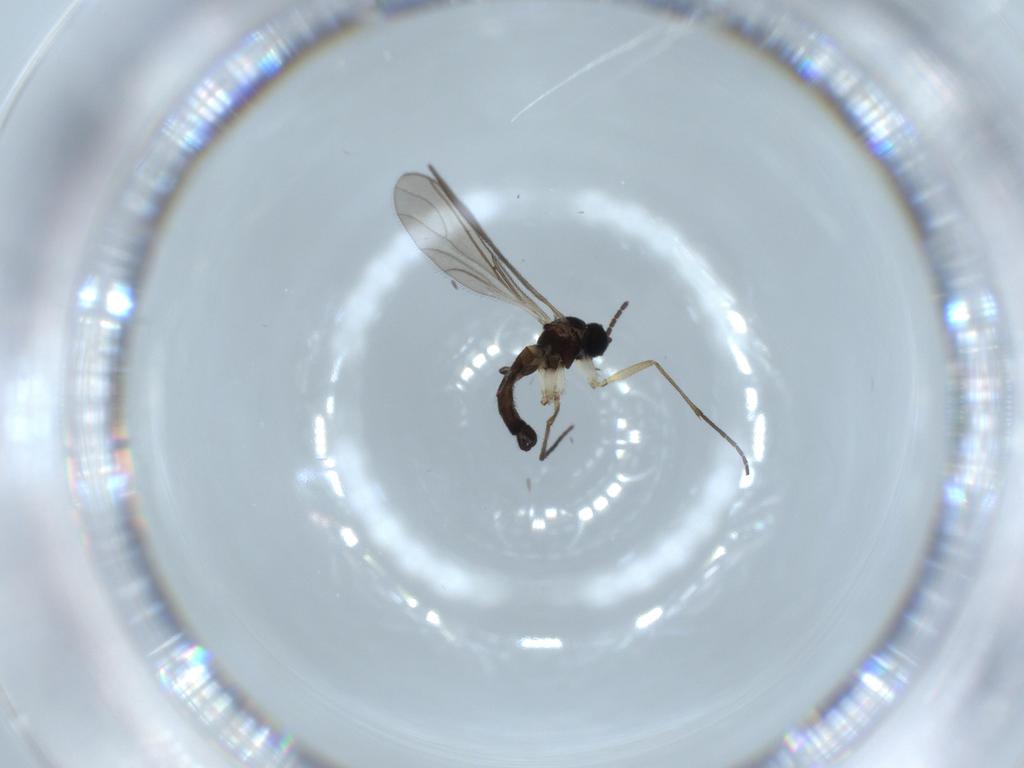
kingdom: Animalia
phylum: Arthropoda
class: Insecta
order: Diptera
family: Sciaridae
